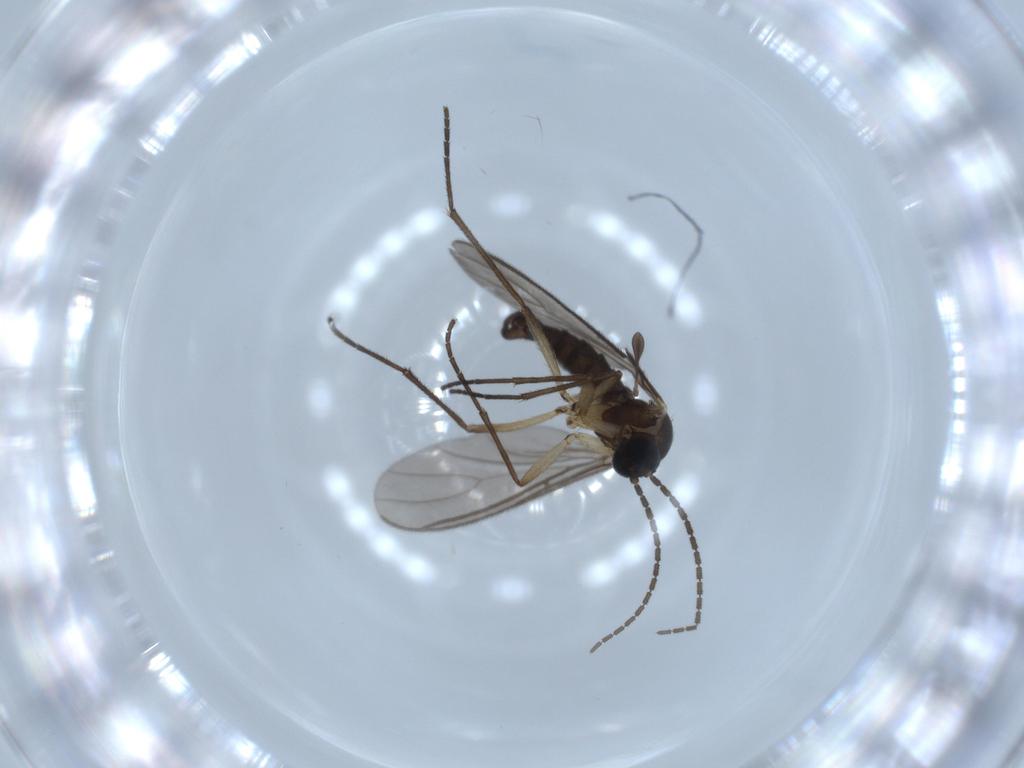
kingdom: Animalia
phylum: Arthropoda
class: Insecta
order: Diptera
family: Sciaridae
